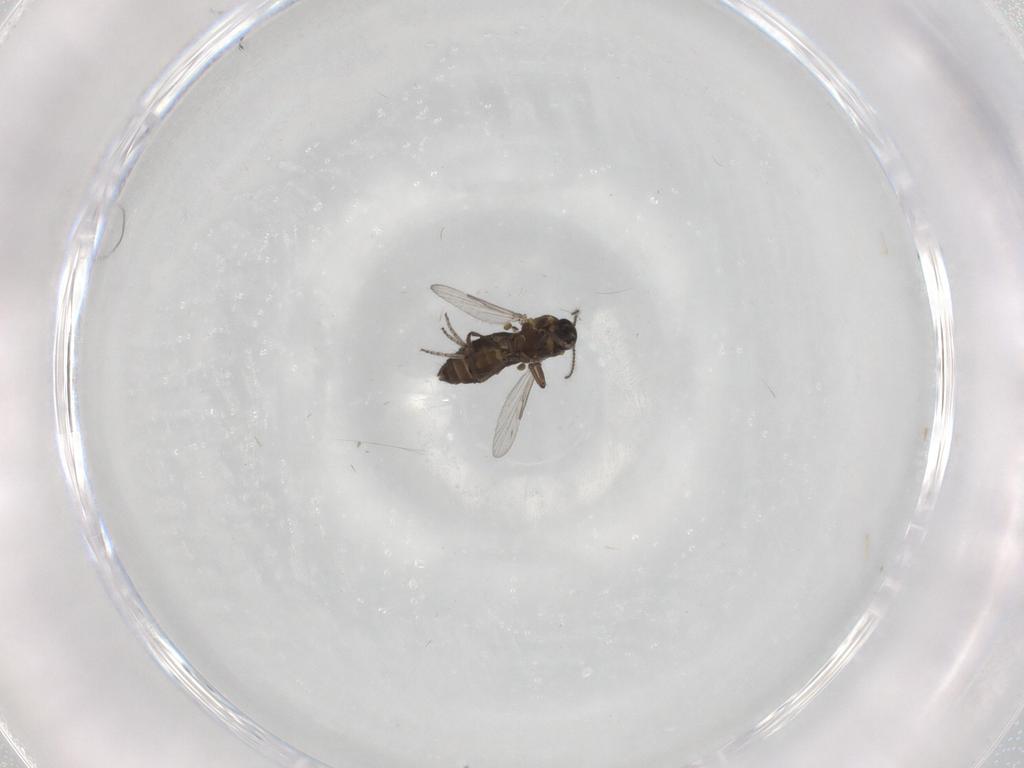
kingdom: Animalia
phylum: Arthropoda
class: Insecta
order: Diptera
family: Ceratopogonidae
